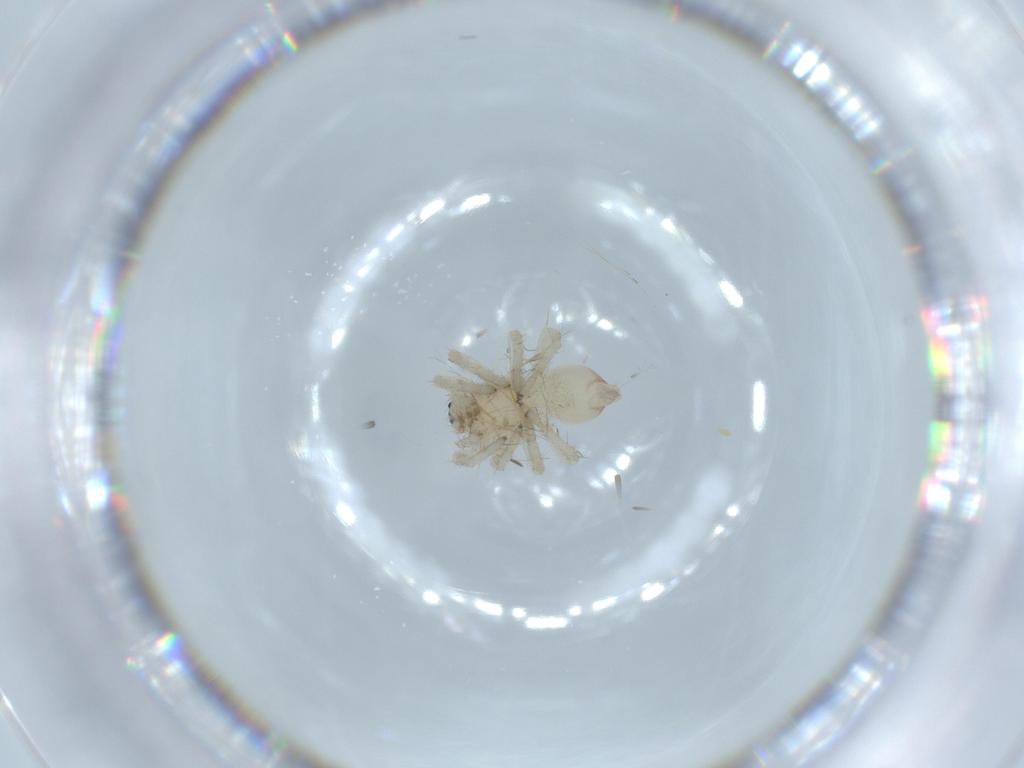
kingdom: Animalia
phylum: Arthropoda
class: Arachnida
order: Araneae
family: Clubionidae
